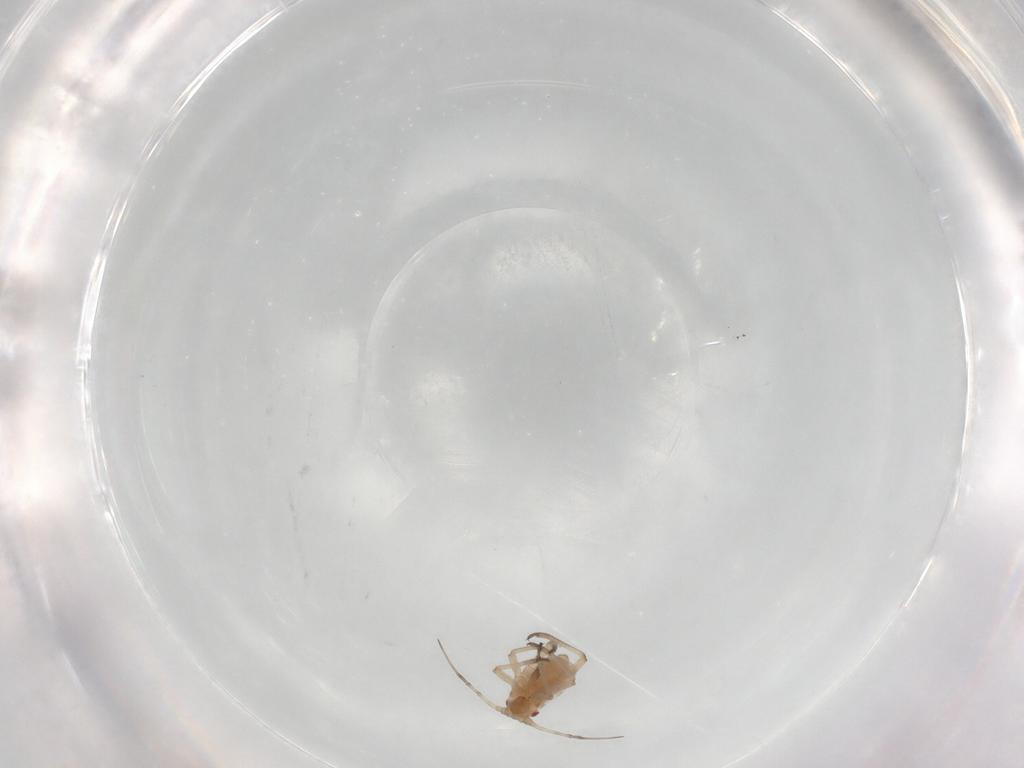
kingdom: Animalia
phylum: Arthropoda
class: Insecta
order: Hemiptera
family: Aphididae
